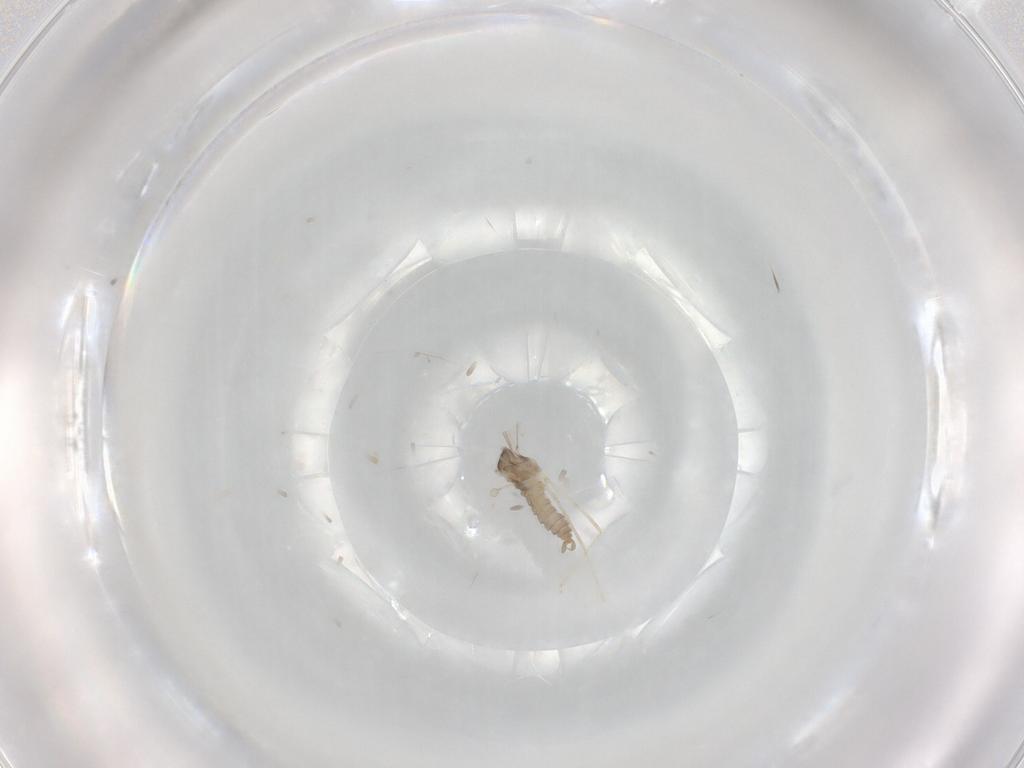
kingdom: Animalia
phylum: Arthropoda
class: Insecta
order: Diptera
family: Cecidomyiidae
